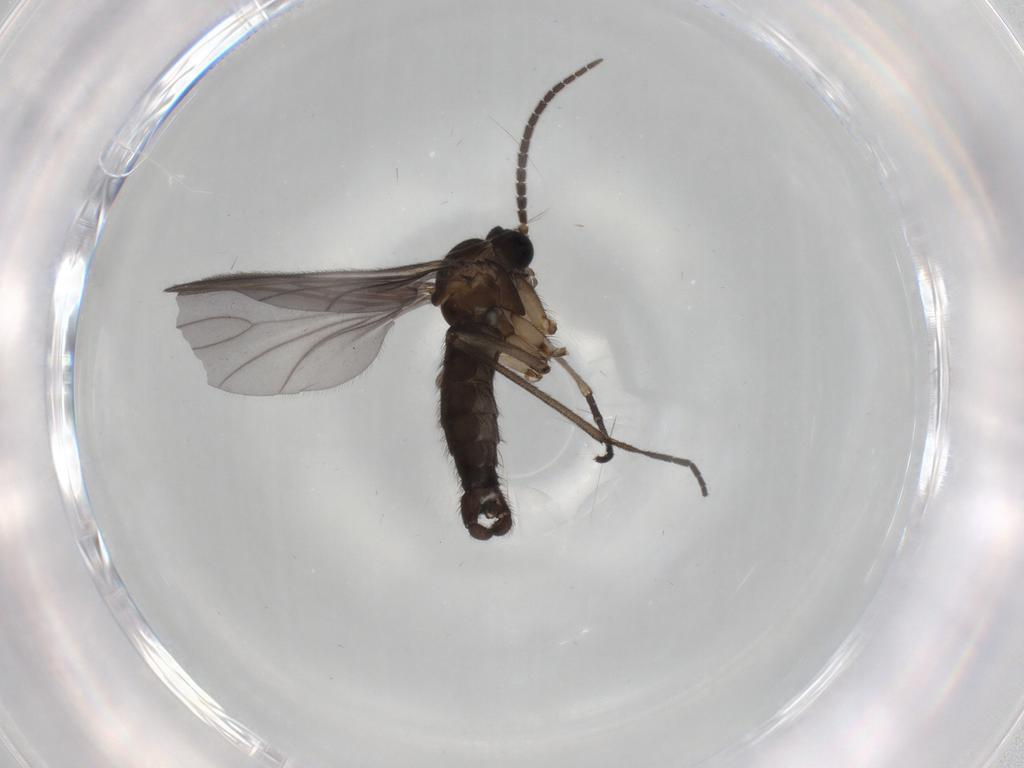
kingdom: Animalia
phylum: Arthropoda
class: Insecta
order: Diptera
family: Sciaridae
